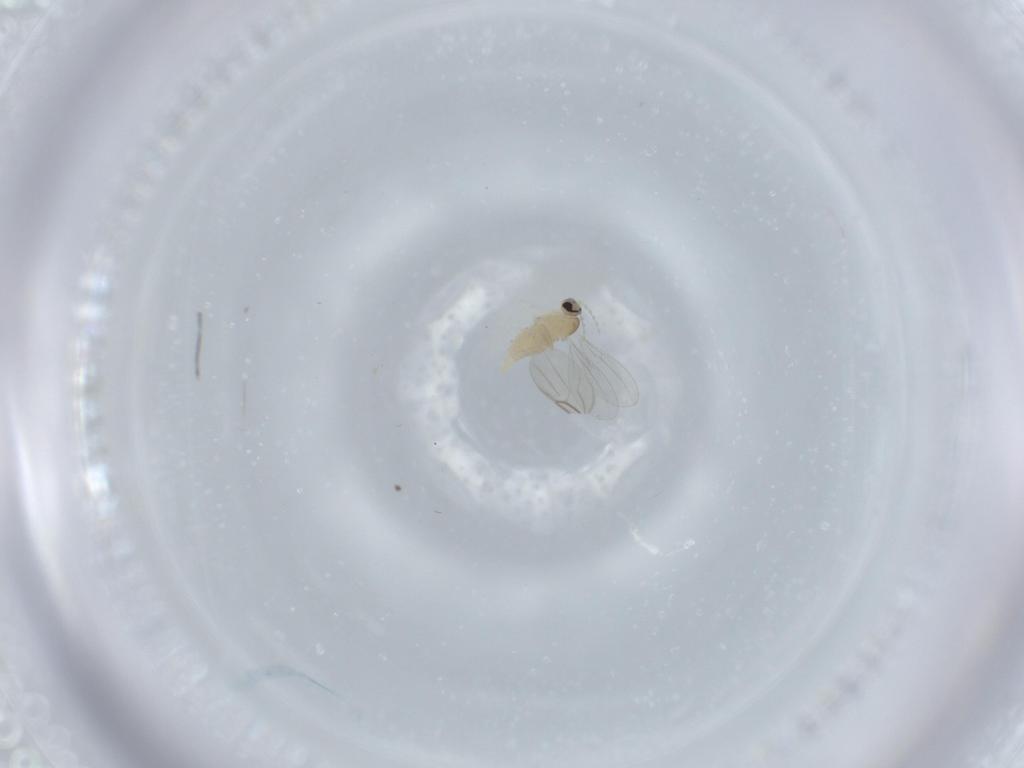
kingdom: Animalia
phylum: Arthropoda
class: Insecta
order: Diptera
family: Cecidomyiidae
